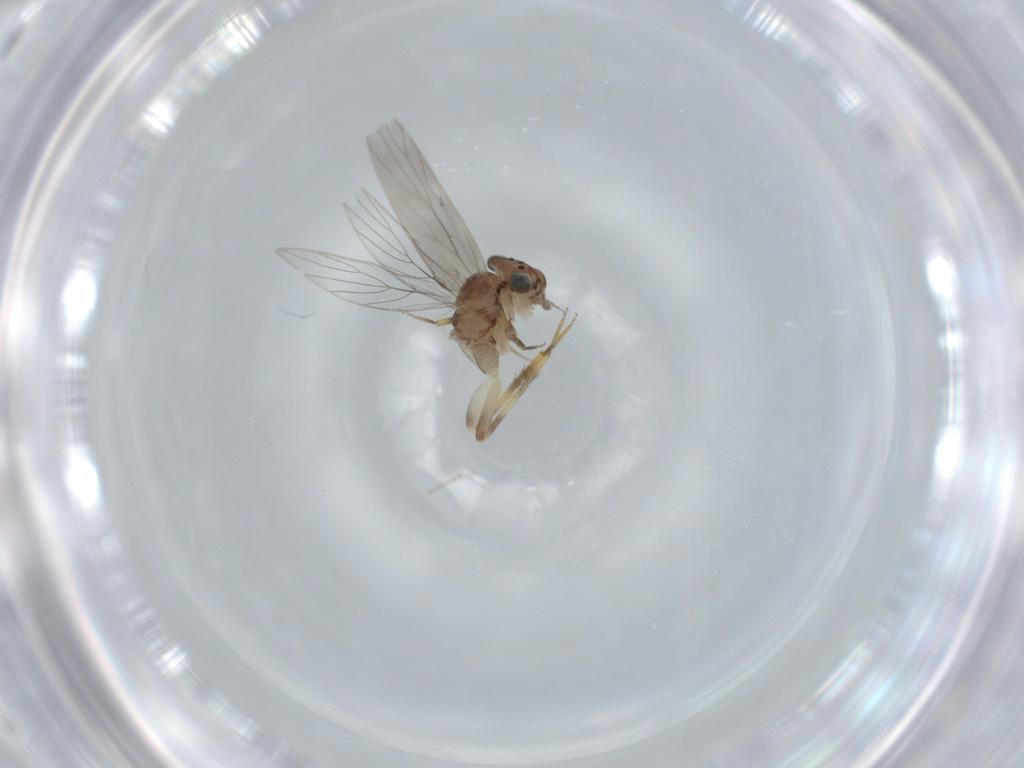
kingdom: Animalia
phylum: Arthropoda
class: Insecta
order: Psocodea
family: Lepidopsocidae
